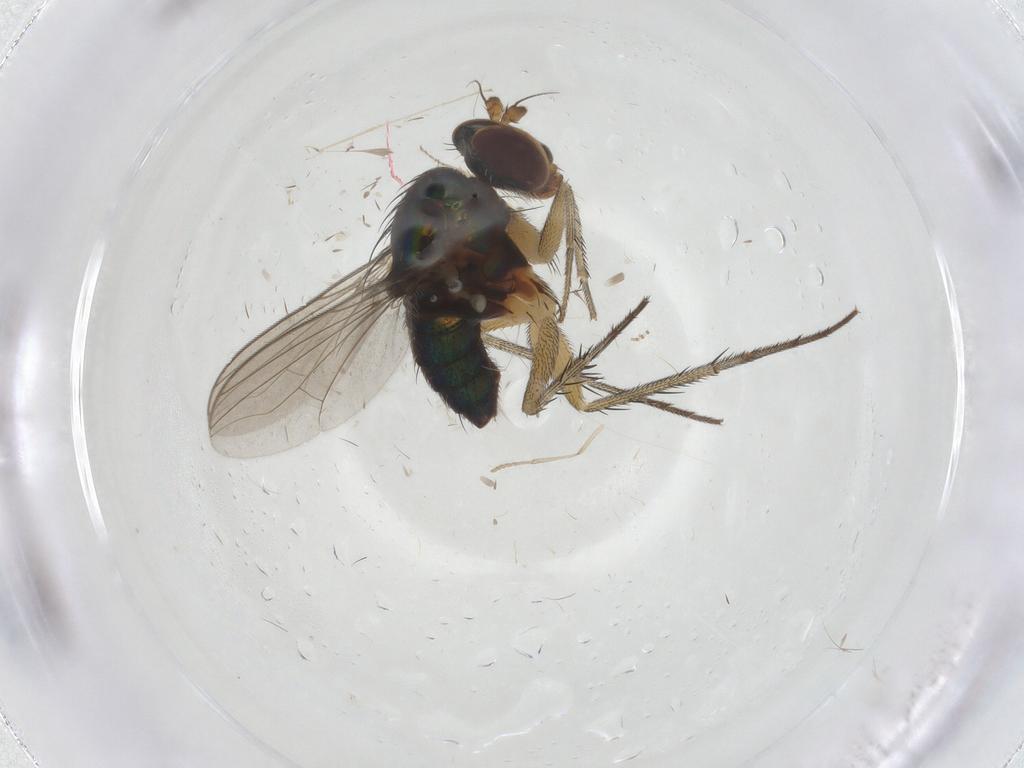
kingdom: Animalia
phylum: Arthropoda
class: Insecta
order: Diptera
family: Dolichopodidae
